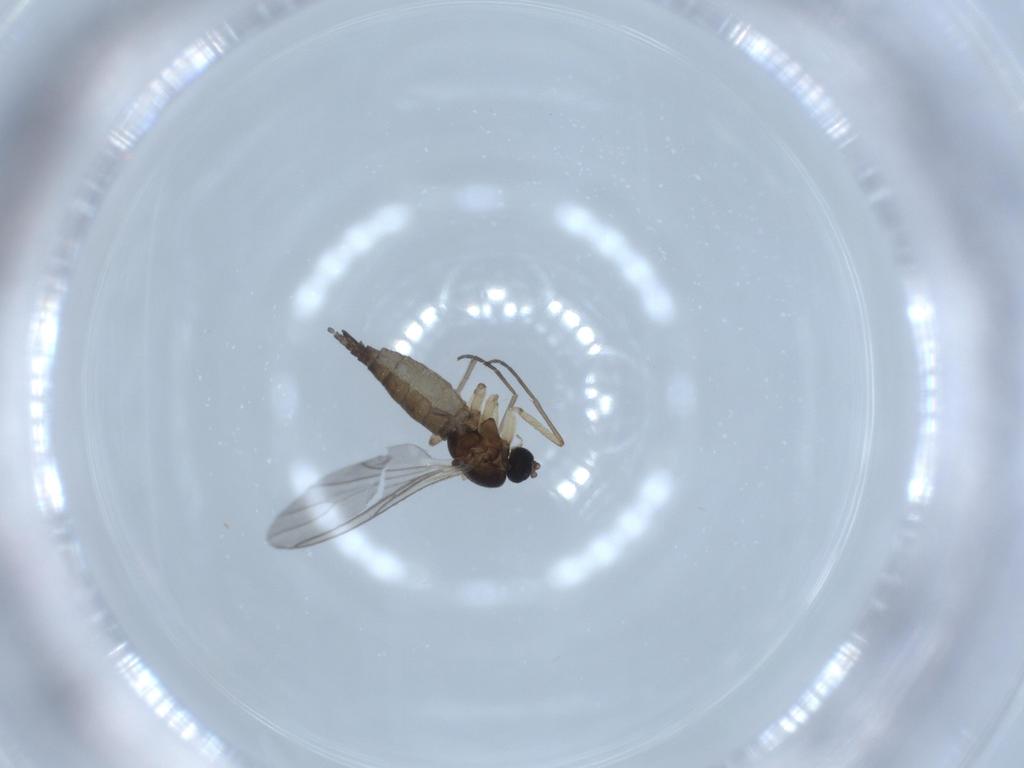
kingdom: Animalia
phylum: Arthropoda
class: Insecta
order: Diptera
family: Sciaridae
